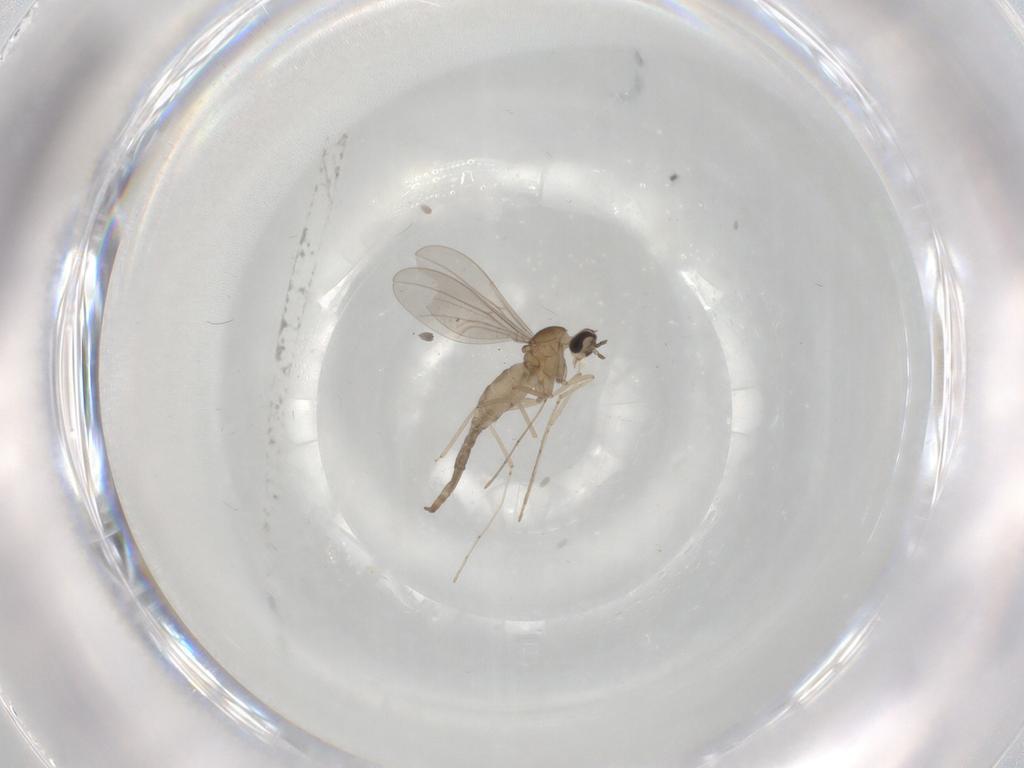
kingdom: Animalia
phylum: Arthropoda
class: Insecta
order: Diptera
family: Cecidomyiidae
